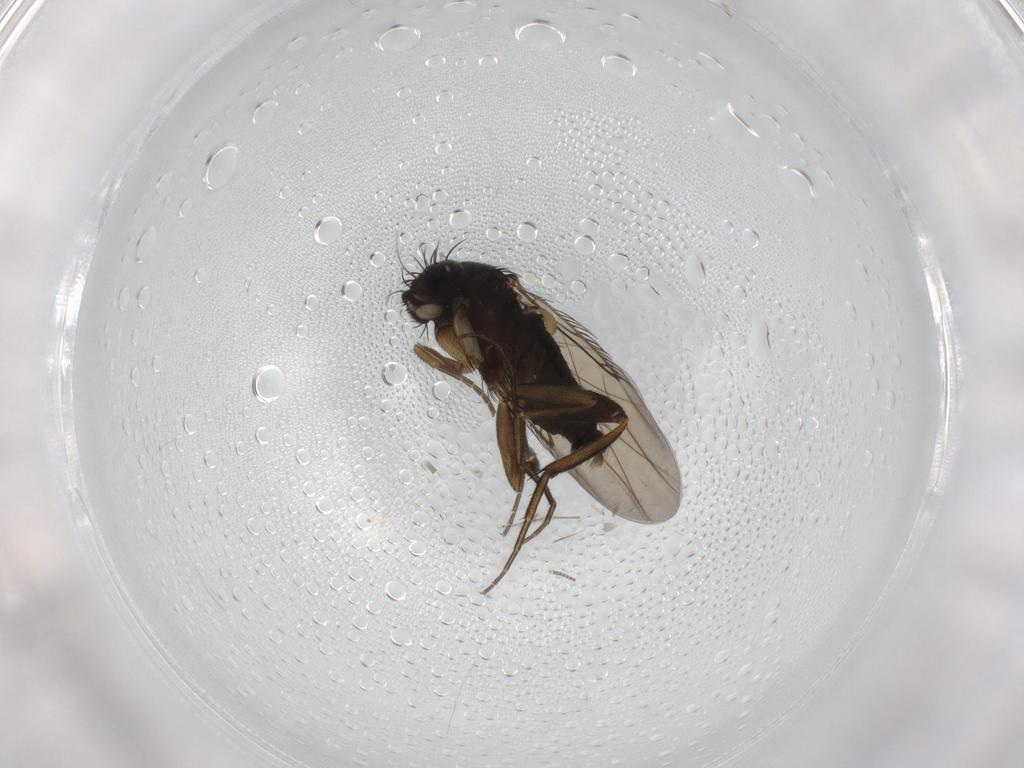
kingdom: Animalia
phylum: Arthropoda
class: Insecta
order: Diptera
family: Phoridae
